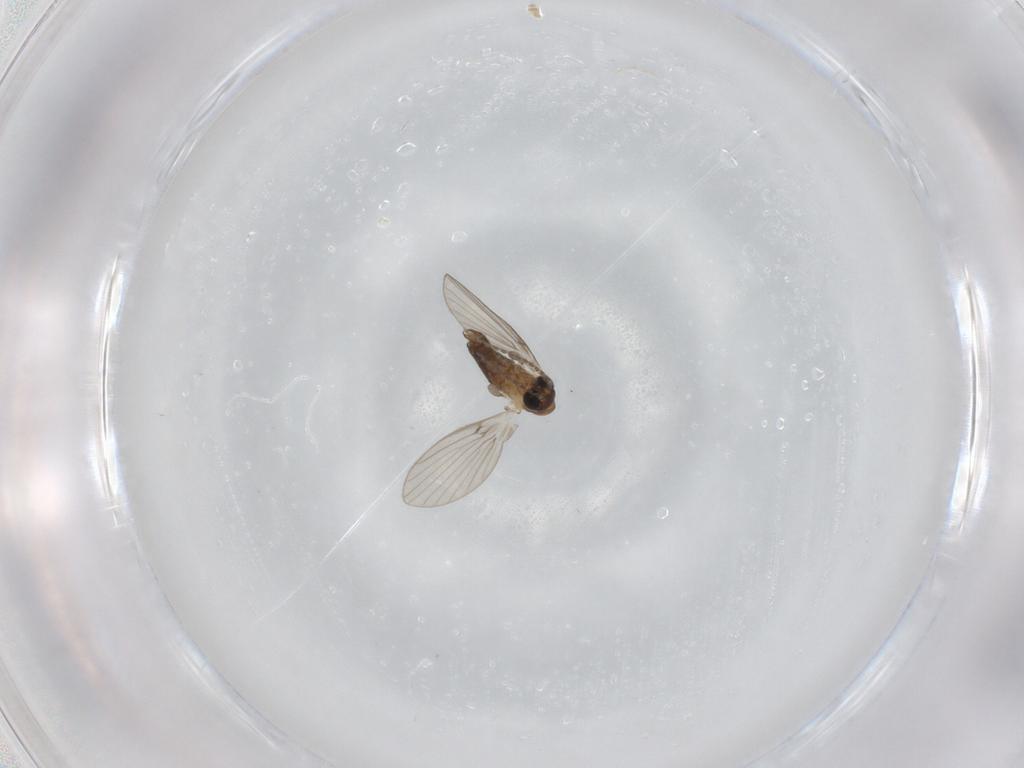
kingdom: Animalia
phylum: Arthropoda
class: Insecta
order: Diptera
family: Psychodidae
